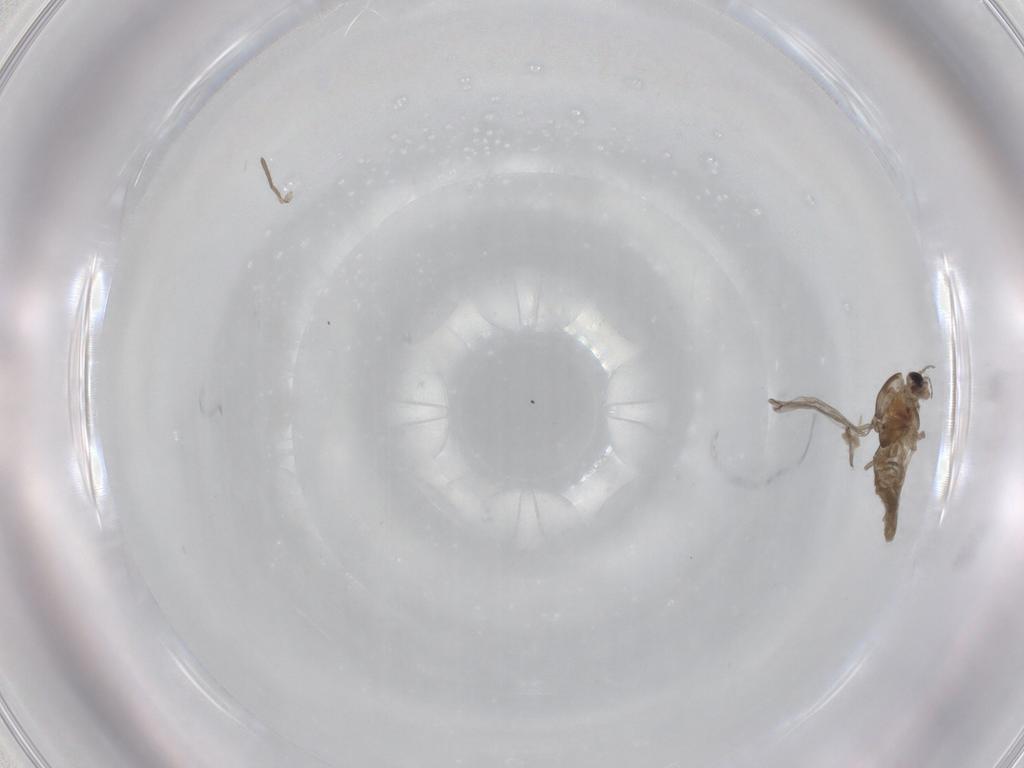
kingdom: Animalia
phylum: Arthropoda
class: Insecta
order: Diptera
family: Chironomidae
